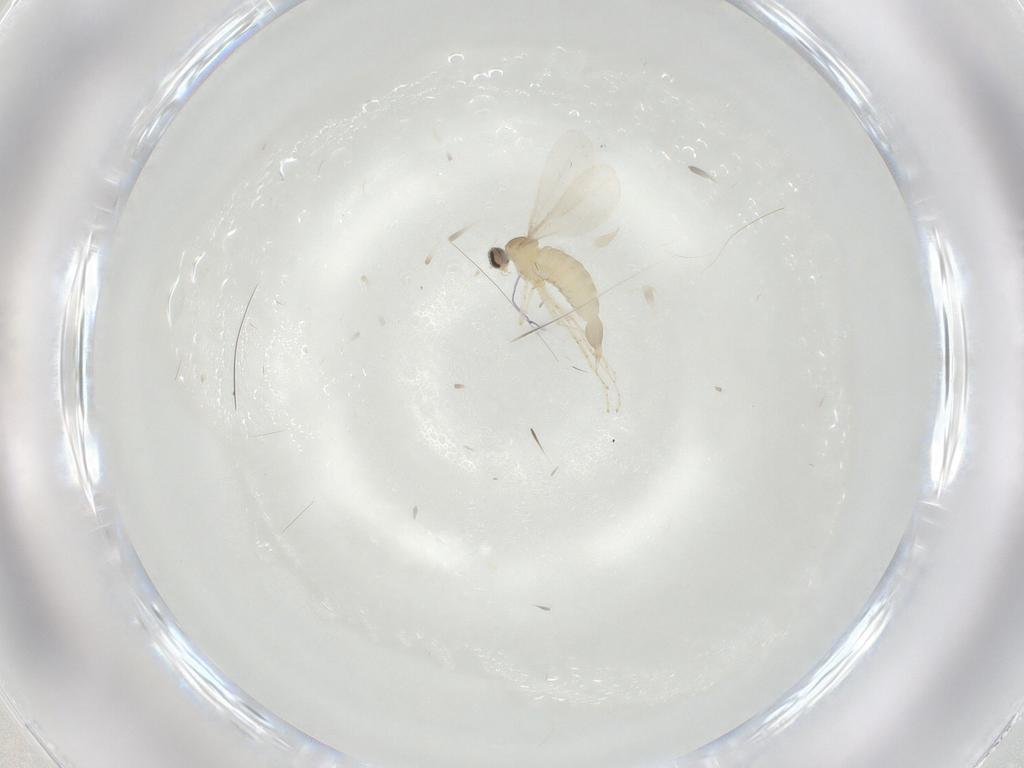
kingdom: Animalia
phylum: Arthropoda
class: Insecta
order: Diptera
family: Cecidomyiidae
